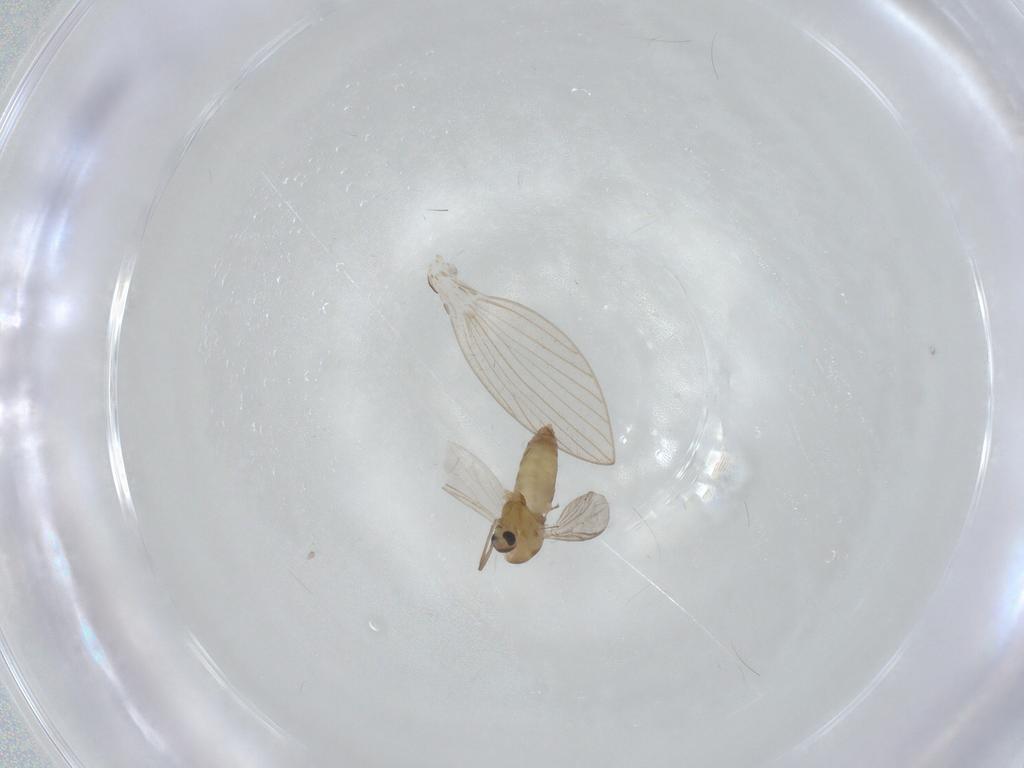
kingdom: Animalia
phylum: Arthropoda
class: Insecta
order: Diptera
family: Chironomidae
